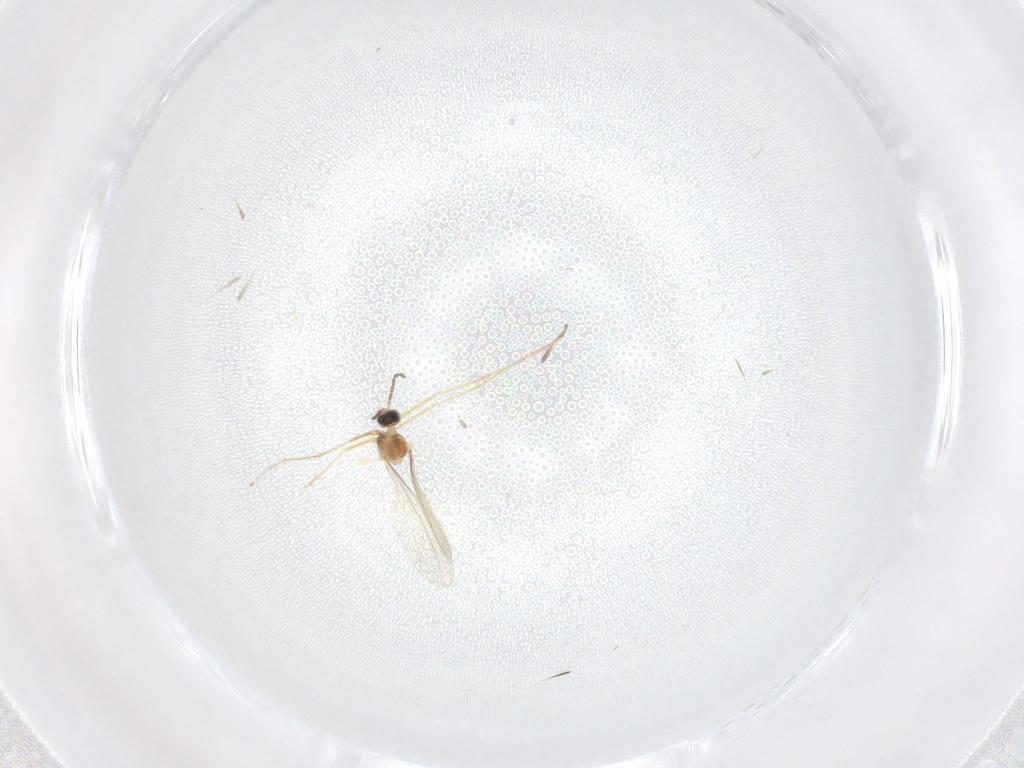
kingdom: Animalia
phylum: Arthropoda
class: Insecta
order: Diptera
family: Cecidomyiidae
